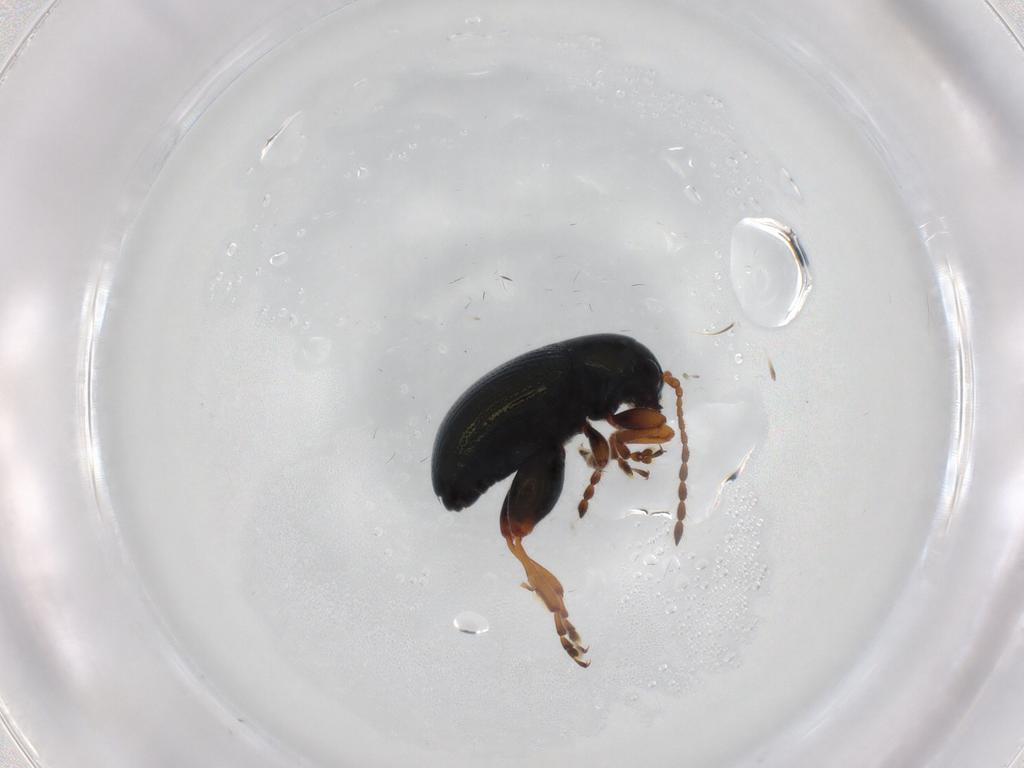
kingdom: Animalia
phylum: Arthropoda
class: Insecta
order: Coleoptera
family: Chrysomelidae
